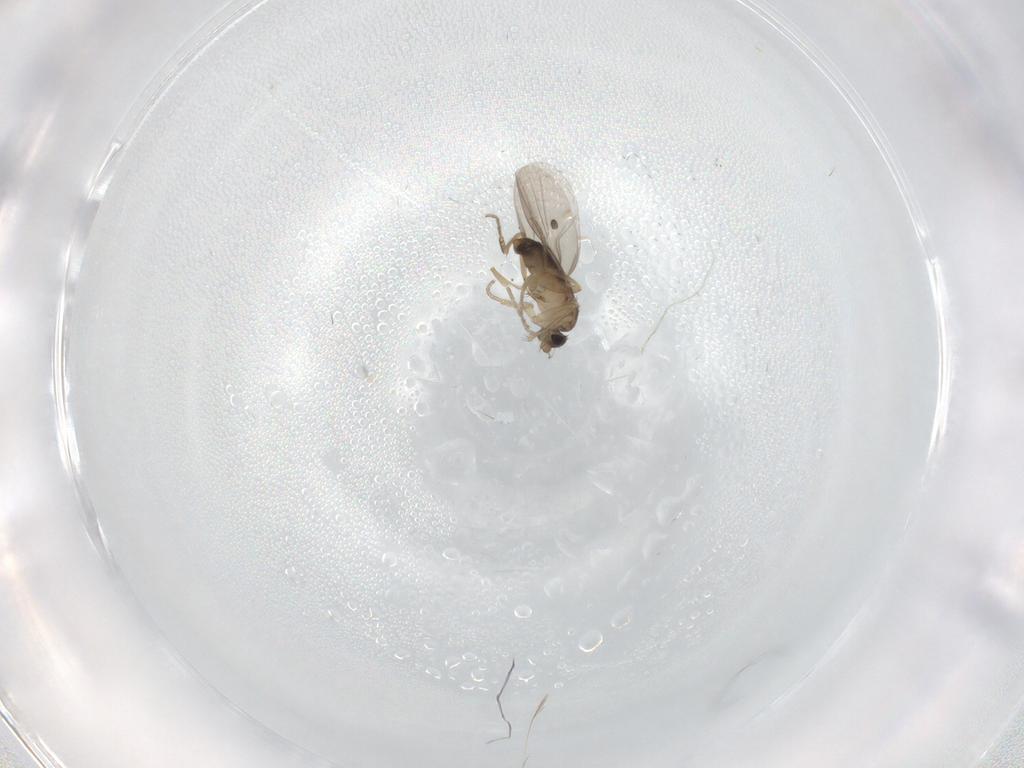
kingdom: Animalia
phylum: Arthropoda
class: Insecta
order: Diptera
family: Phoridae
